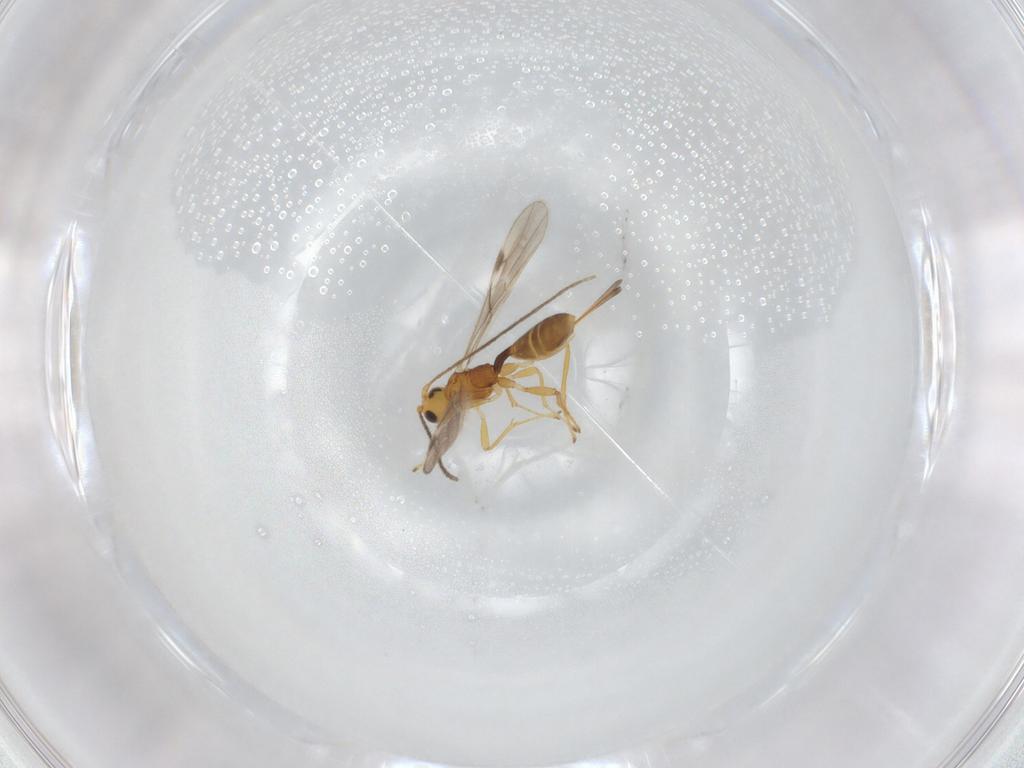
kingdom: Animalia
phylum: Arthropoda
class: Insecta
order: Hymenoptera
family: Braconidae
